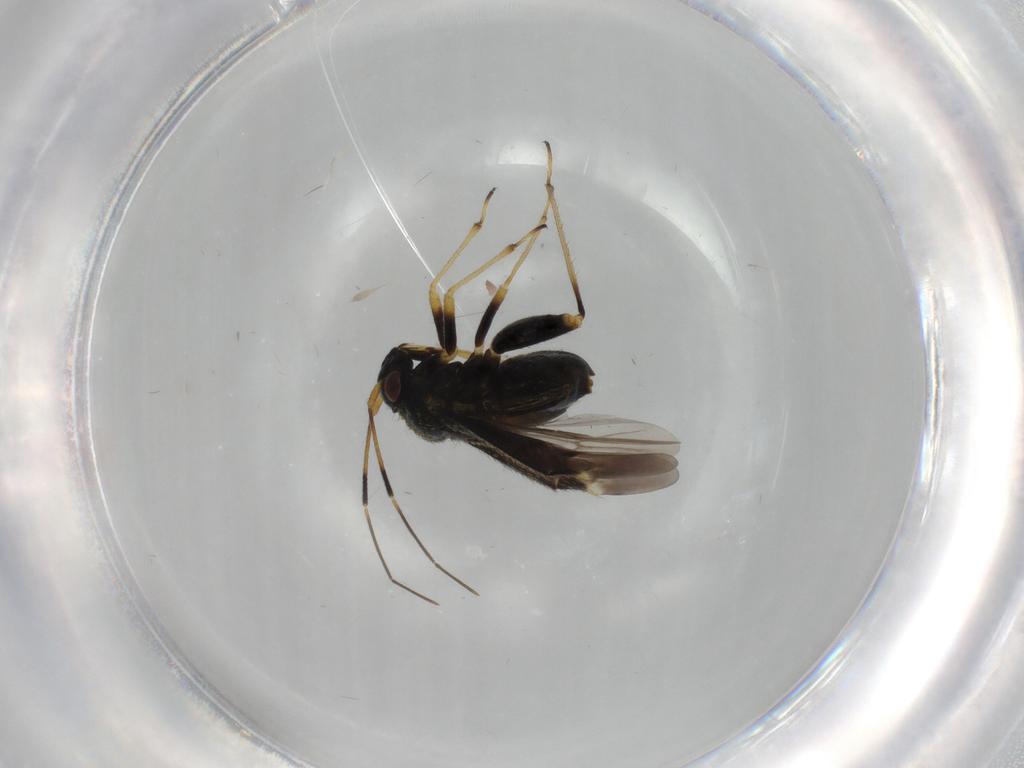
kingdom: Animalia
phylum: Arthropoda
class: Insecta
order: Hemiptera
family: Miridae
